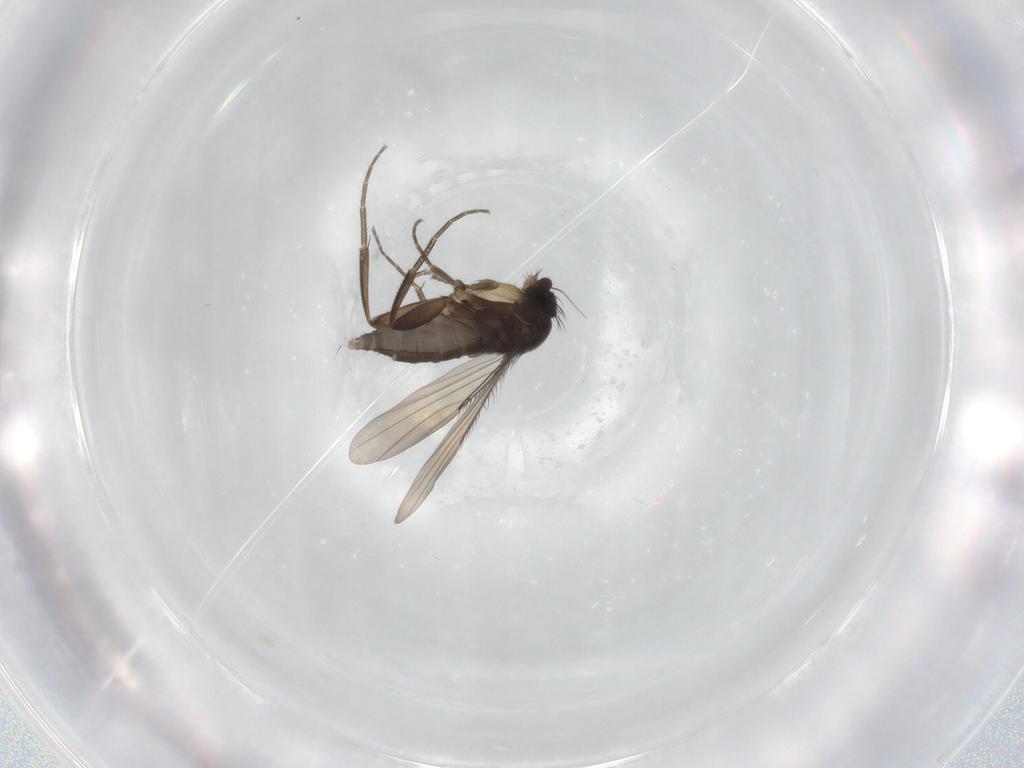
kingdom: Animalia
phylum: Arthropoda
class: Insecta
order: Diptera
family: Phoridae
